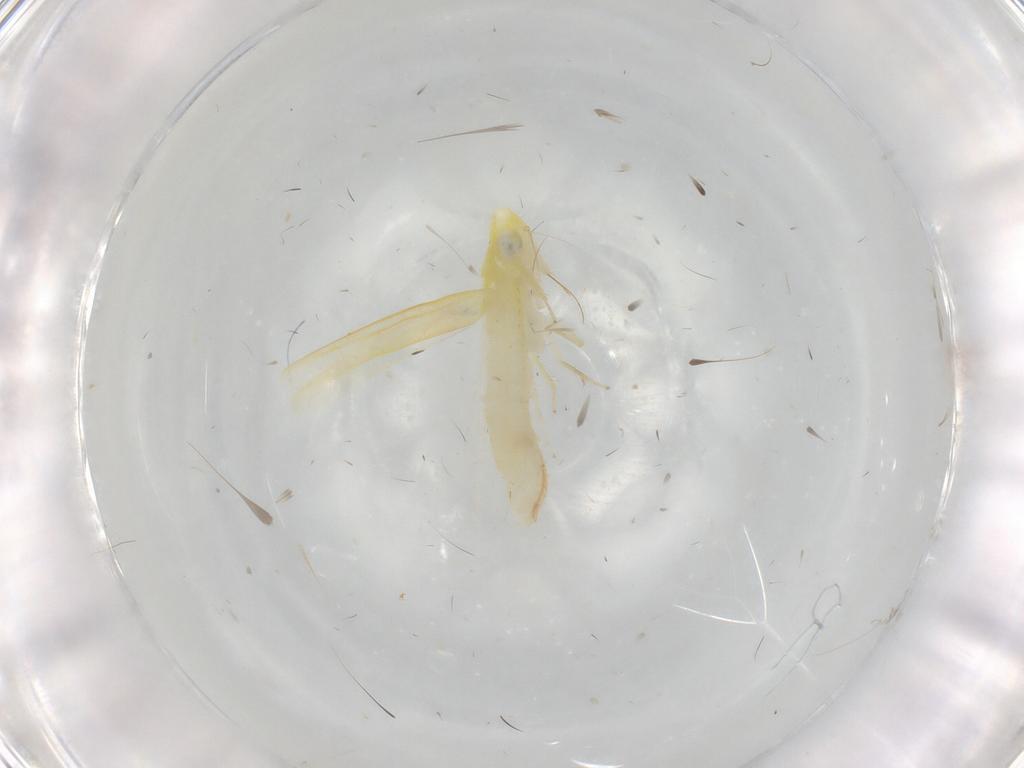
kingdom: Animalia
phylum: Arthropoda
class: Insecta
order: Hemiptera
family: Cicadellidae
